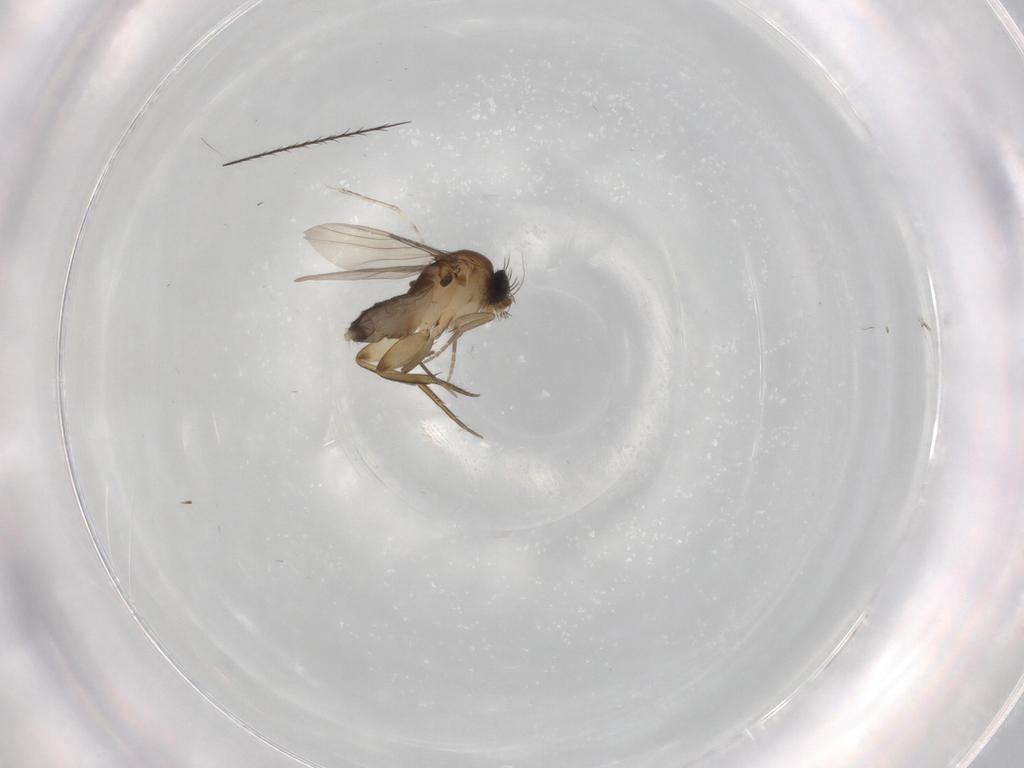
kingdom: Animalia
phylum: Arthropoda
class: Insecta
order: Diptera
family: Phoridae
